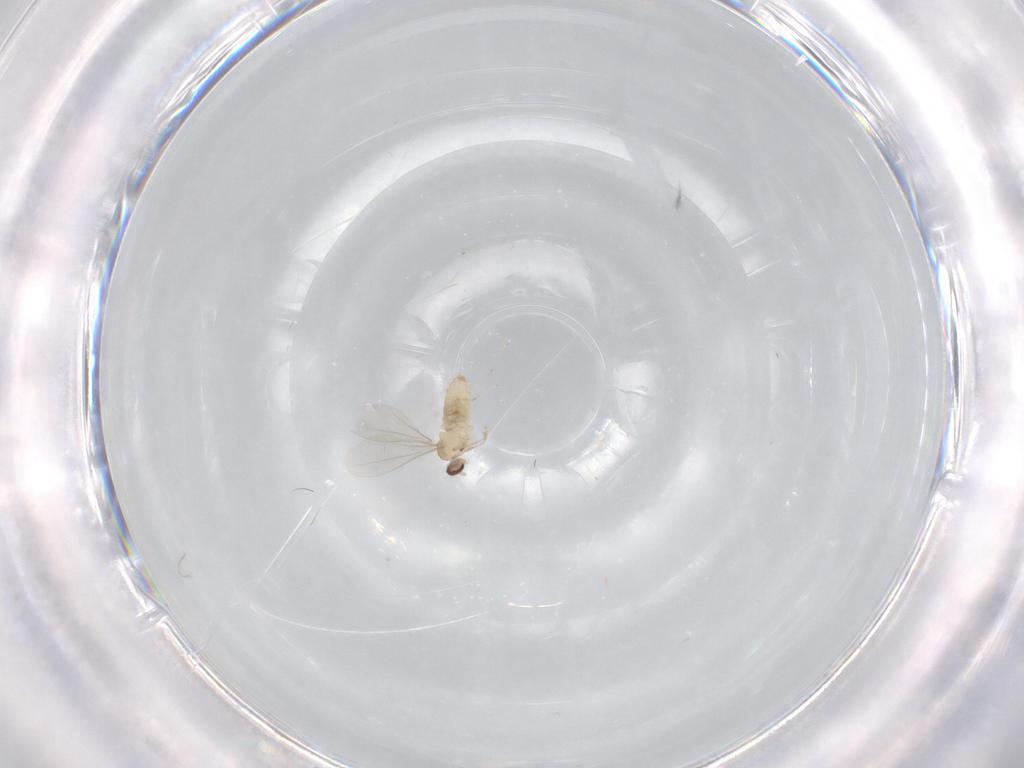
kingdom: Animalia
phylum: Arthropoda
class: Insecta
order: Diptera
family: Cecidomyiidae
